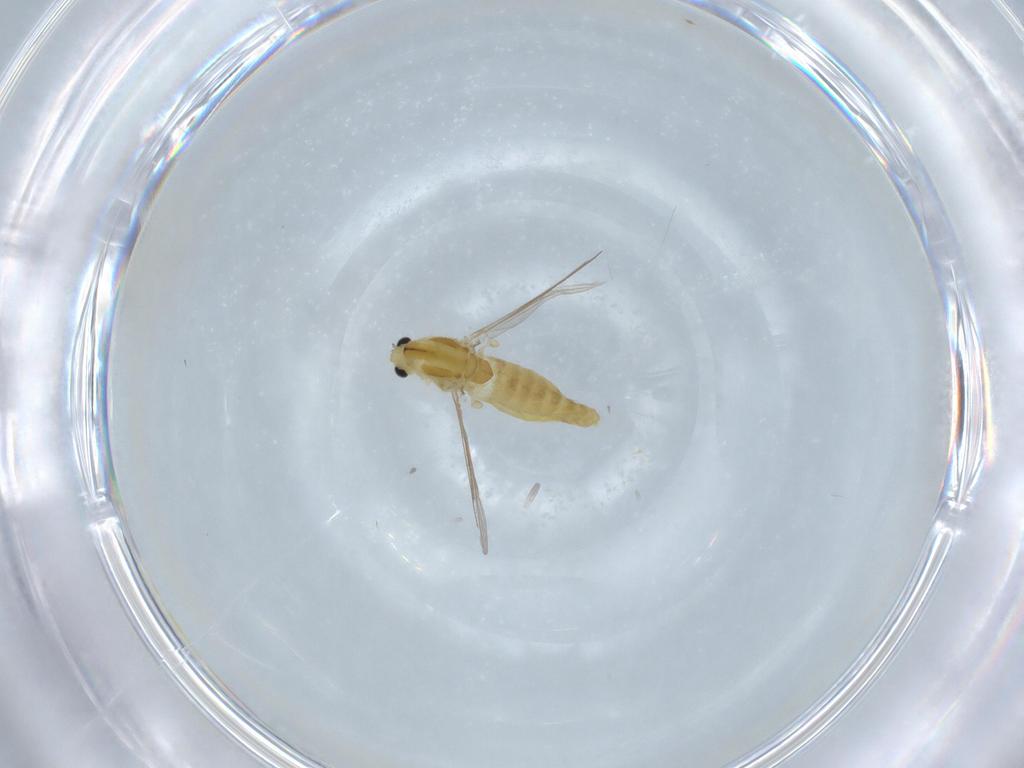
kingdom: Animalia
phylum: Arthropoda
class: Insecta
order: Diptera
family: Chironomidae
